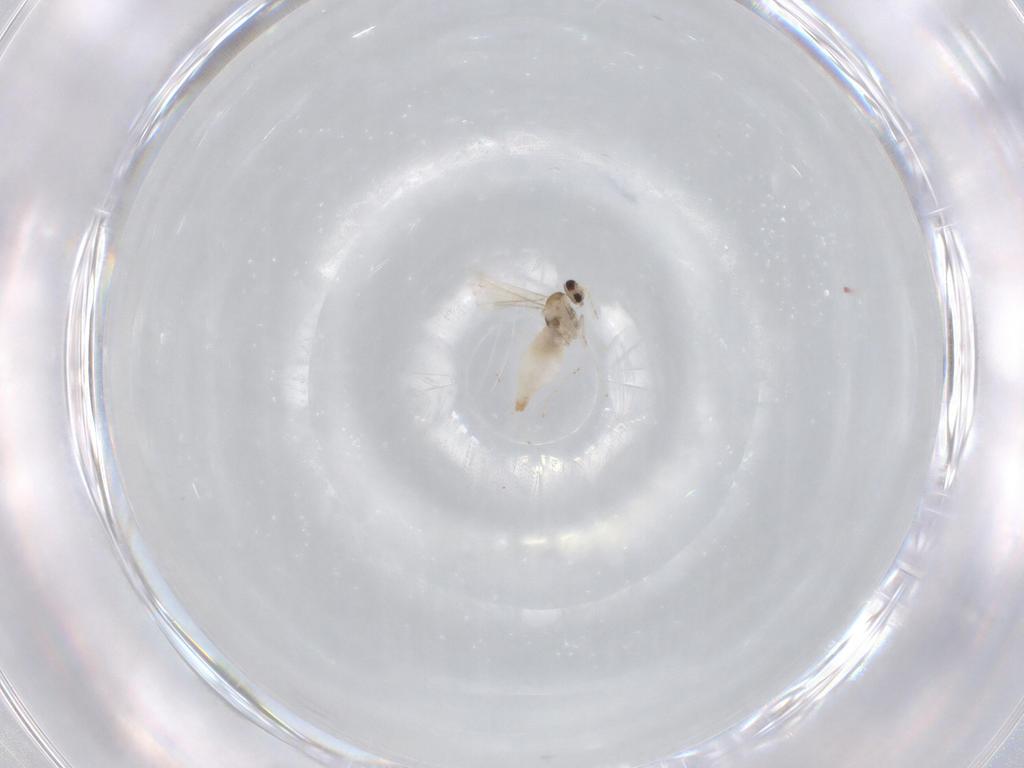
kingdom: Animalia
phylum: Arthropoda
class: Insecta
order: Diptera
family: Phoridae
